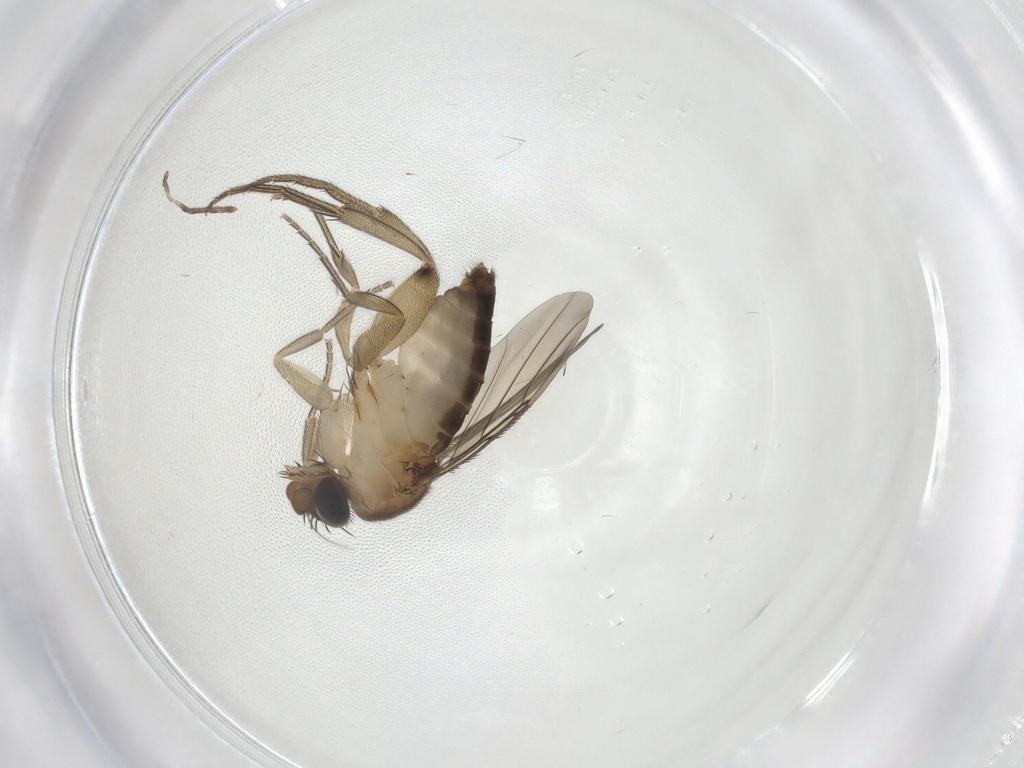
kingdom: Animalia
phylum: Arthropoda
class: Insecta
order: Diptera
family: Phoridae
